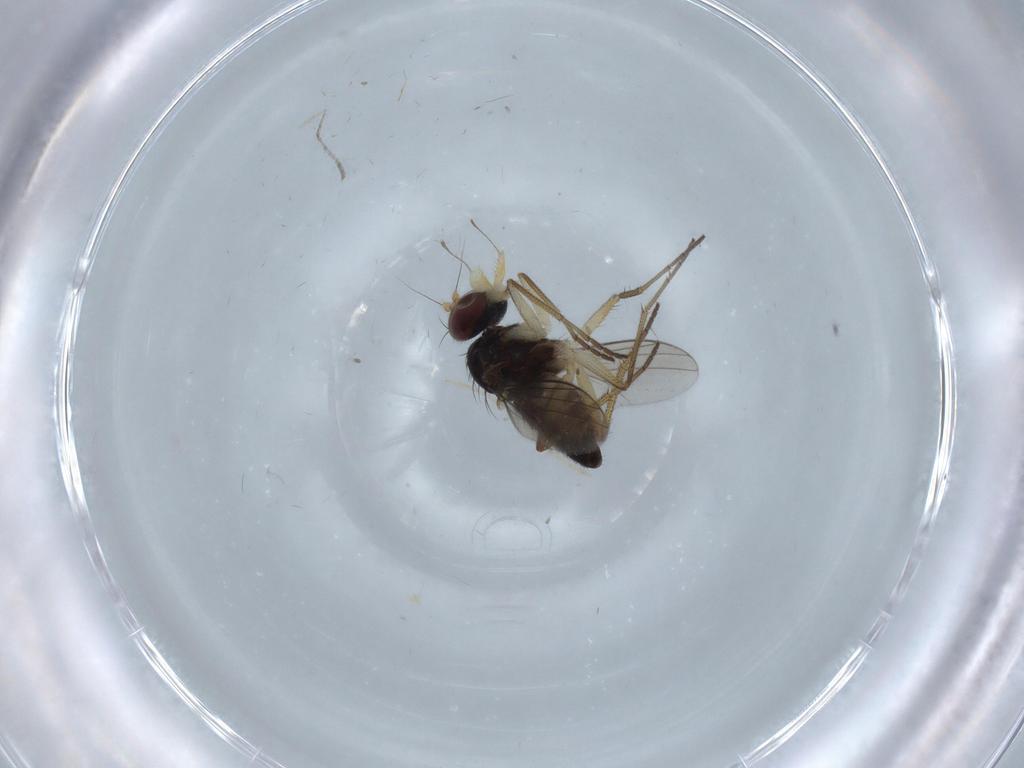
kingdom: Animalia
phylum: Arthropoda
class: Insecta
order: Diptera
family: Dolichopodidae
